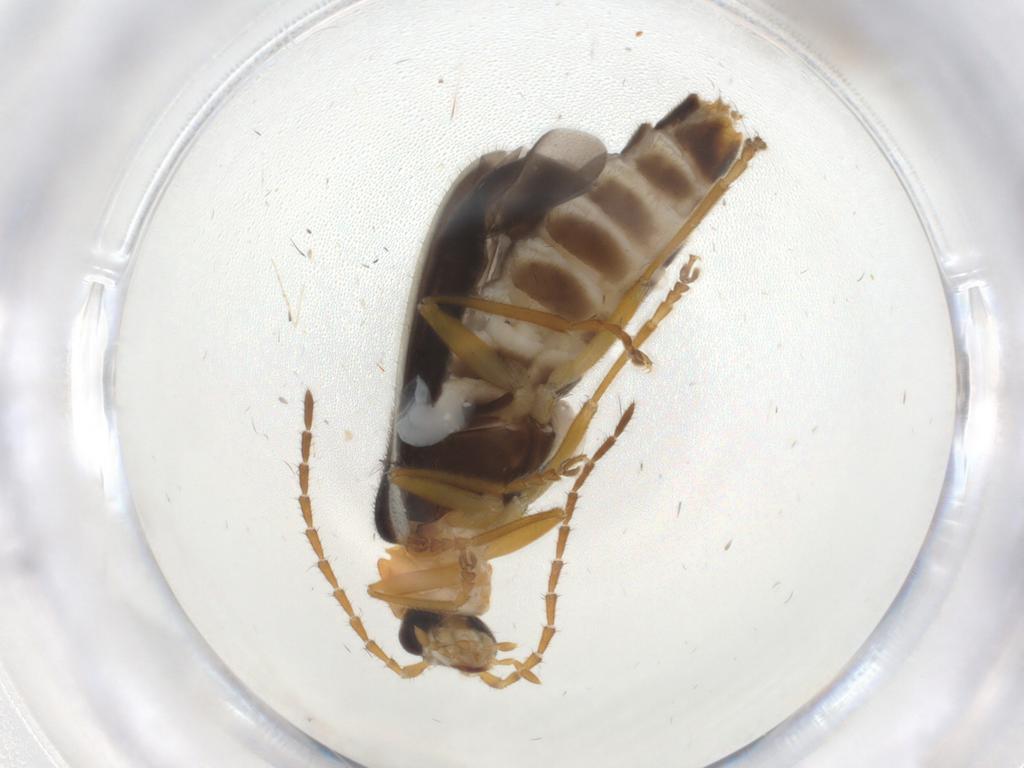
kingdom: Animalia
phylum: Arthropoda
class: Insecta
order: Coleoptera
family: Cantharidae
